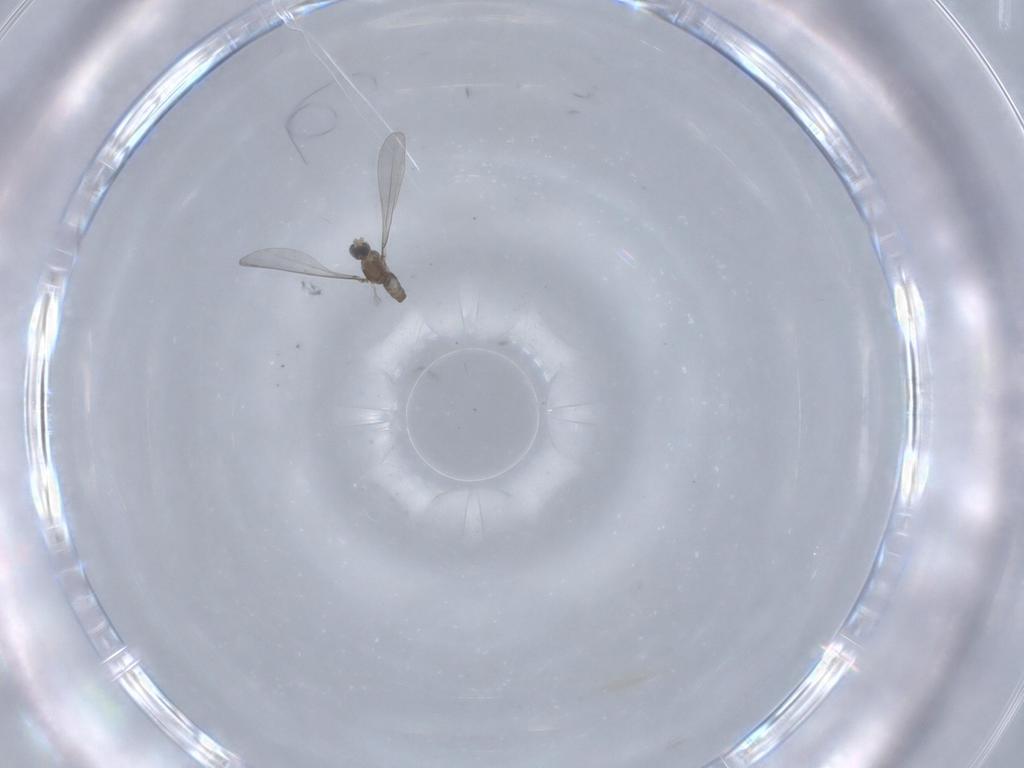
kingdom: Animalia
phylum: Arthropoda
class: Insecta
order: Diptera
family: Cecidomyiidae
